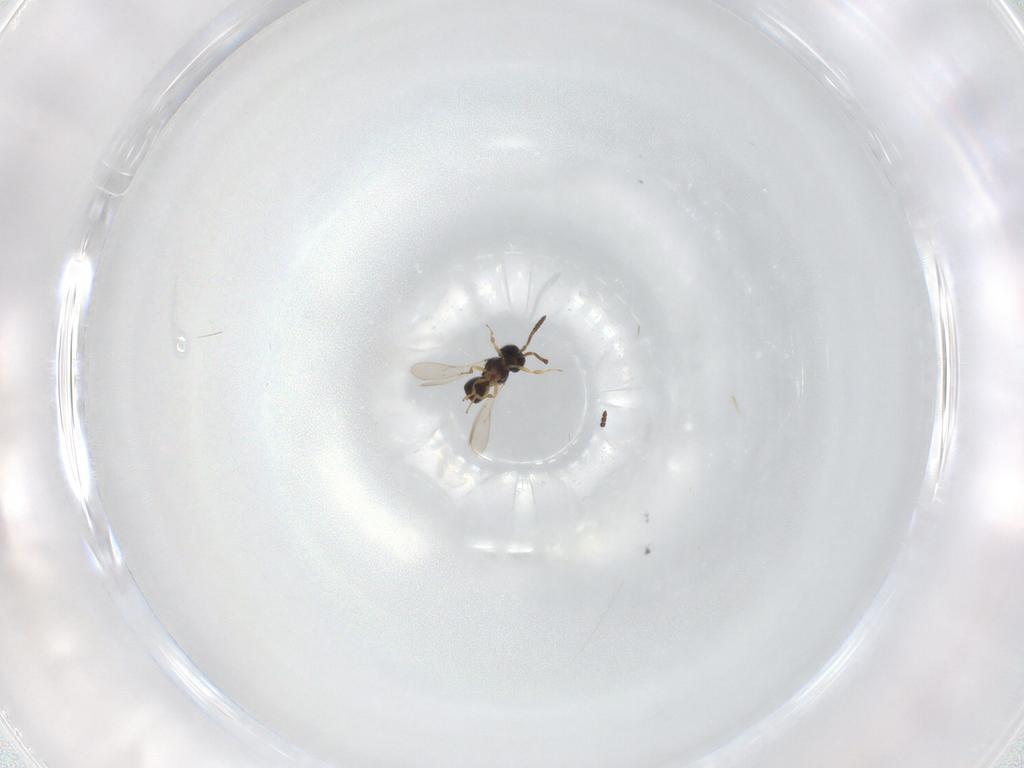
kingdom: Animalia
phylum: Arthropoda
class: Insecta
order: Hymenoptera
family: Scelionidae
